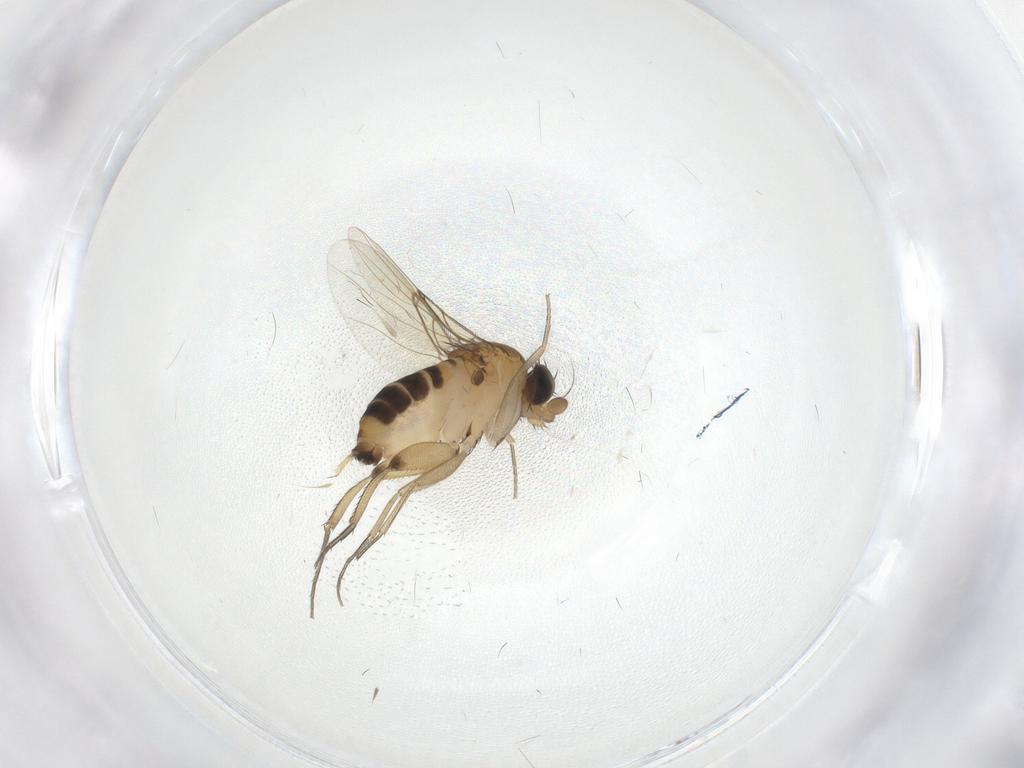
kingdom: Animalia
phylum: Arthropoda
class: Insecta
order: Diptera
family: Phoridae
